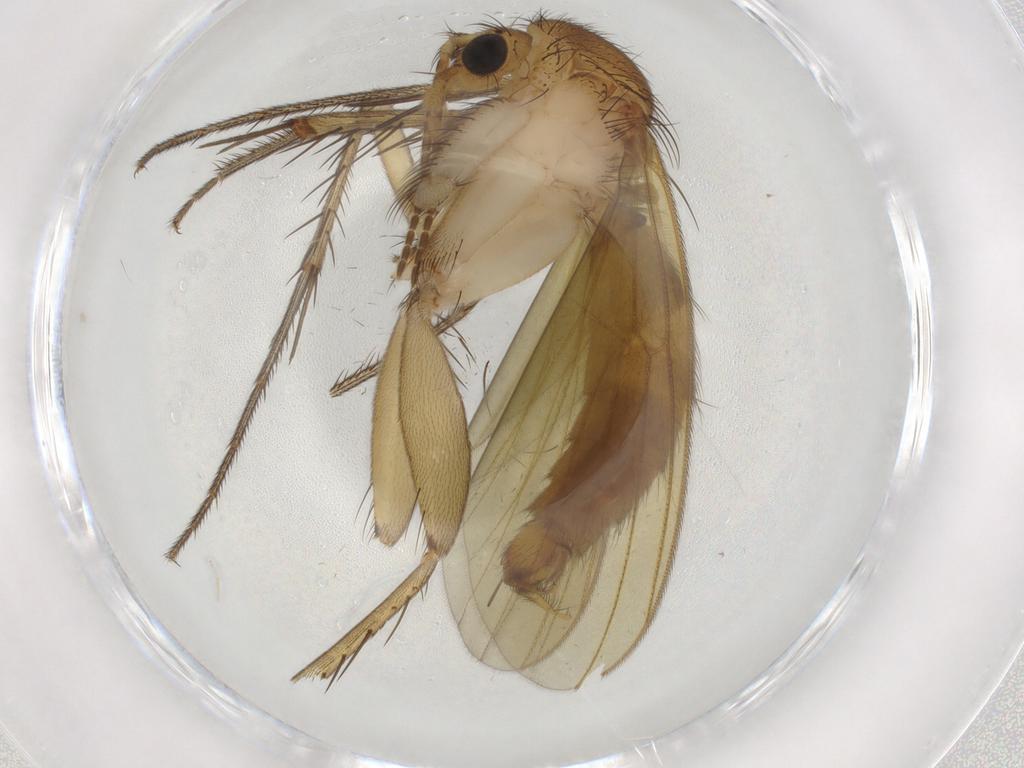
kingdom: Animalia
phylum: Arthropoda
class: Insecta
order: Diptera
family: Mycetophilidae
